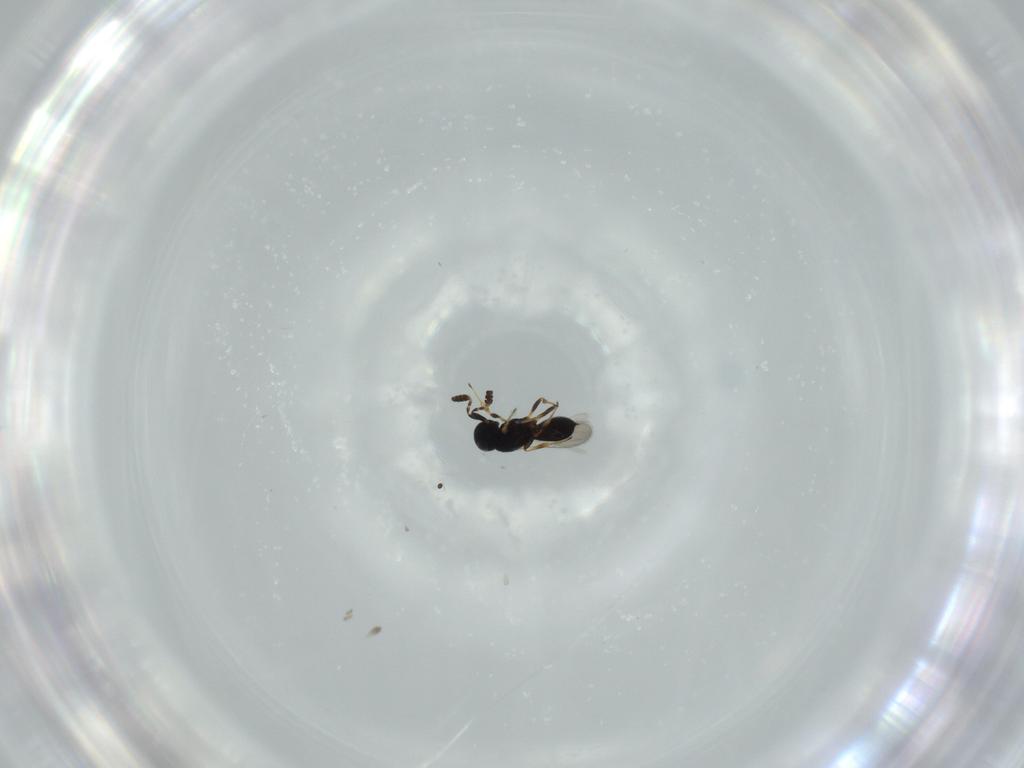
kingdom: Animalia
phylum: Arthropoda
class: Insecta
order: Hymenoptera
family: Scelionidae
